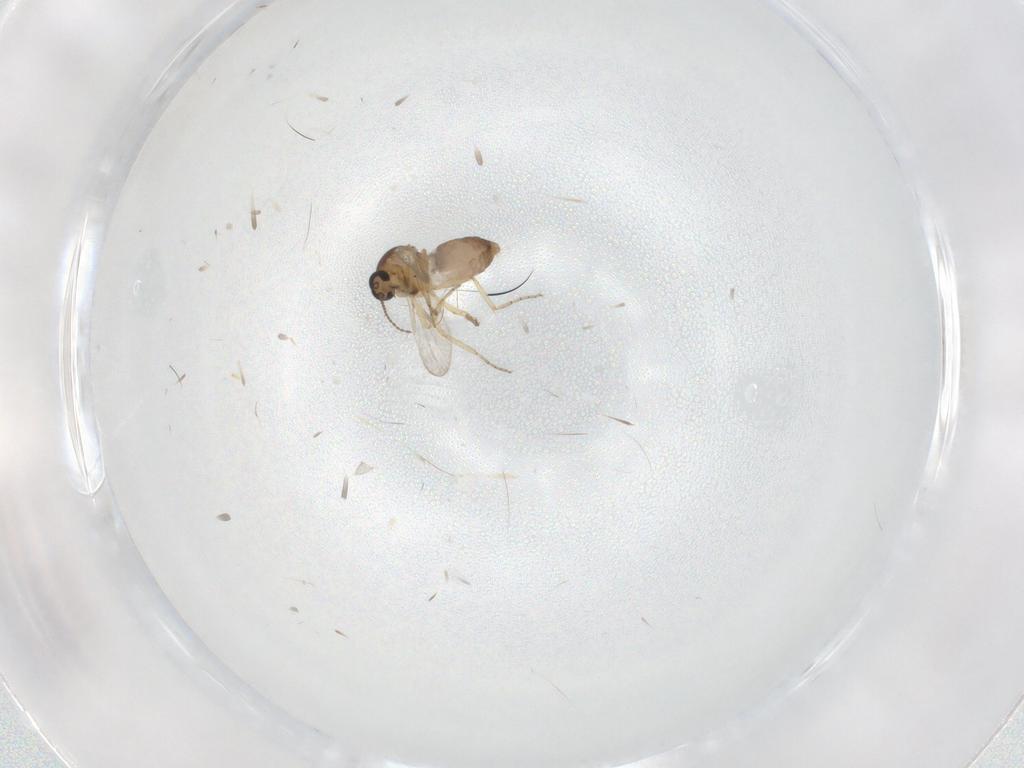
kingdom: Animalia
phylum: Arthropoda
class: Insecta
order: Diptera
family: Ceratopogonidae
